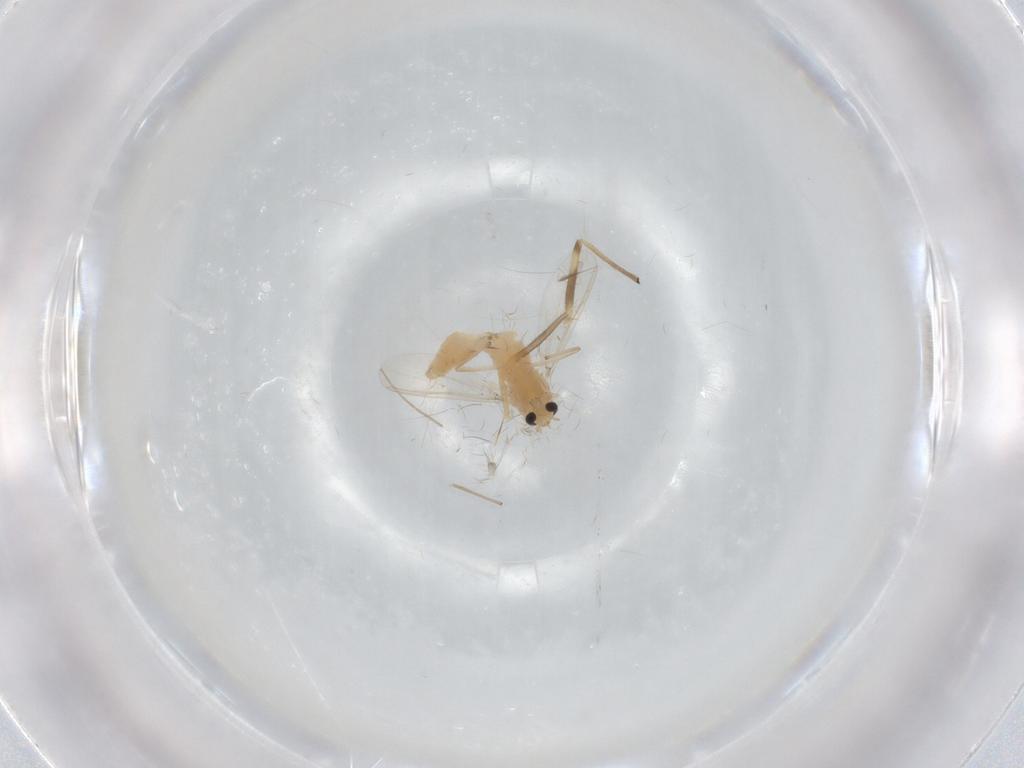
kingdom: Animalia
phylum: Arthropoda
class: Insecta
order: Diptera
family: Chironomidae
